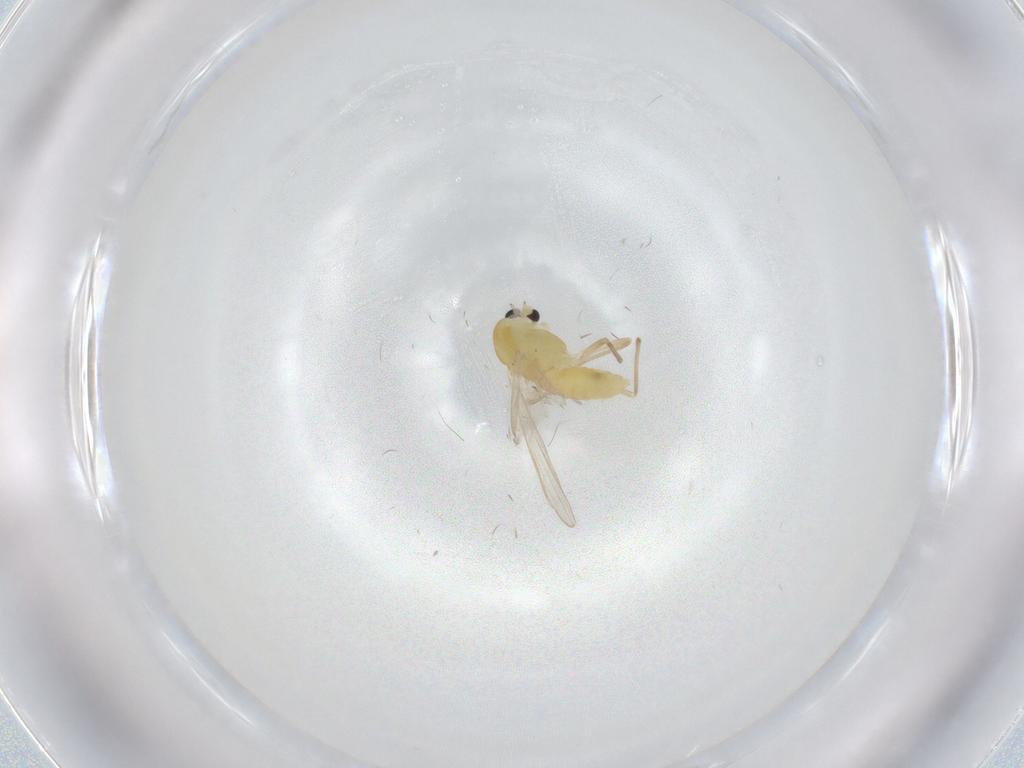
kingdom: Animalia
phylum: Arthropoda
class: Insecta
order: Diptera
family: Chironomidae
